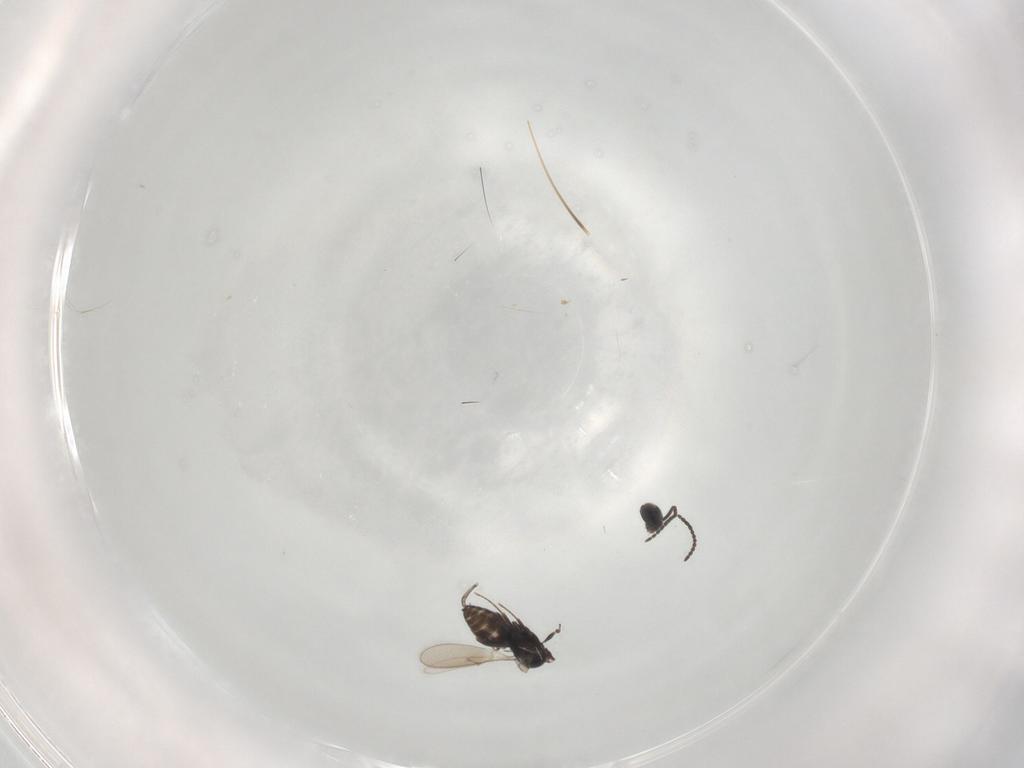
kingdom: Animalia
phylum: Arthropoda
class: Insecta
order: Hymenoptera
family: Scelionidae
